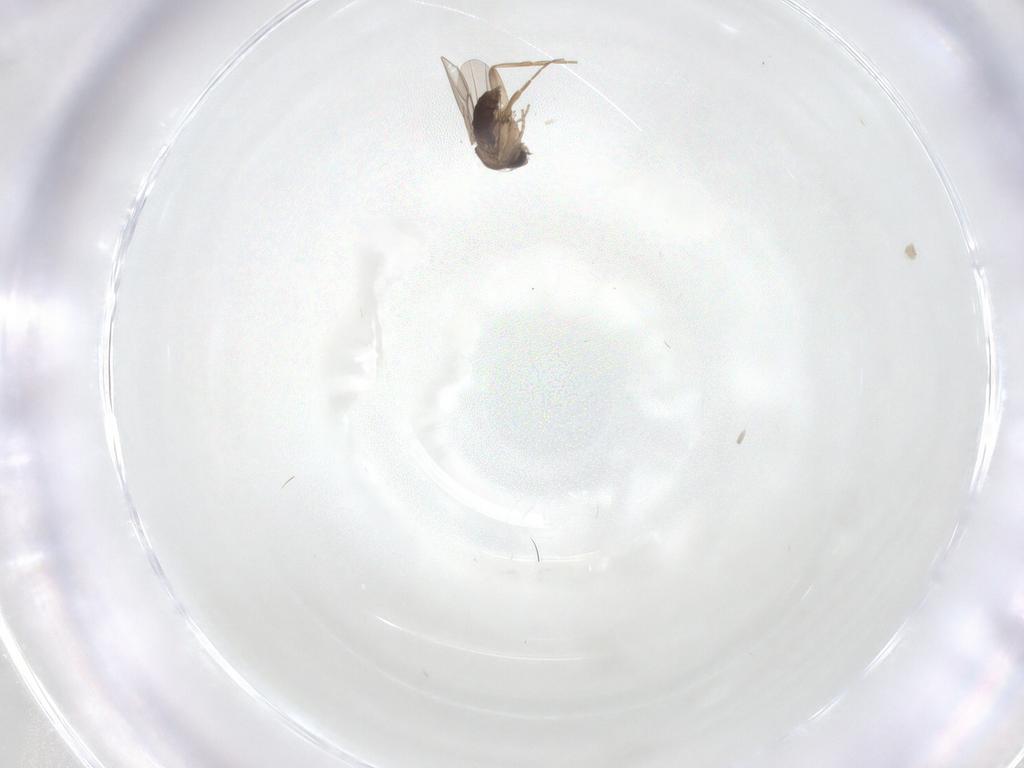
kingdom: Animalia
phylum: Arthropoda
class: Insecta
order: Diptera
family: Chironomidae
